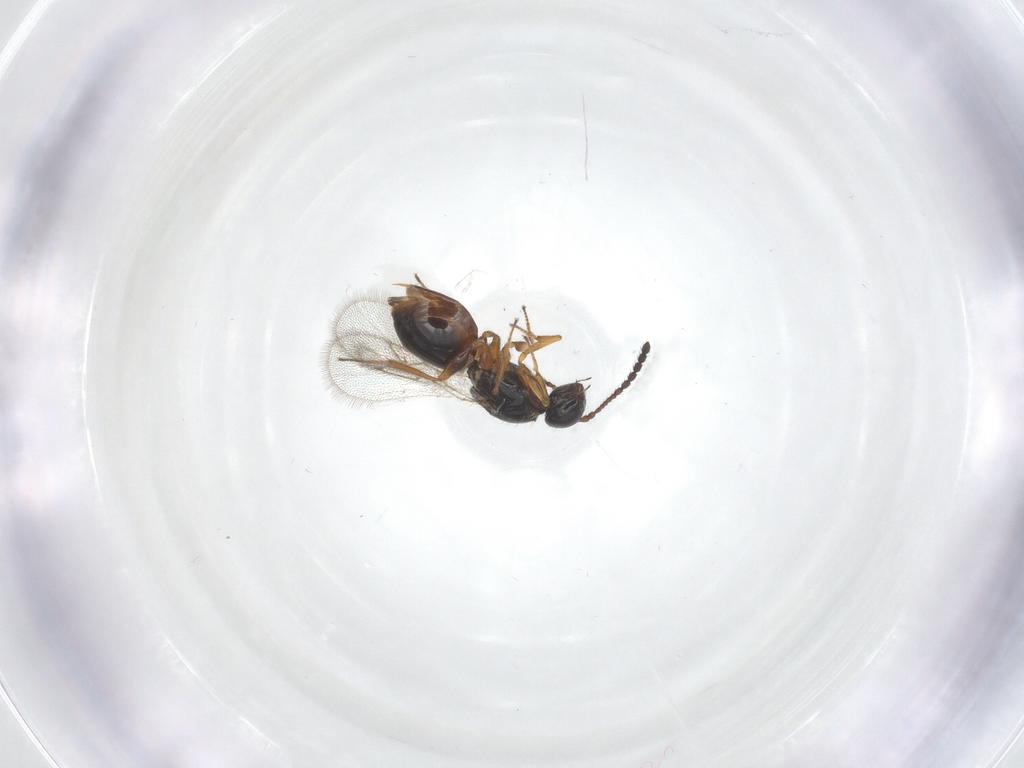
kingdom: Animalia
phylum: Arthropoda
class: Insecta
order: Hymenoptera
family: Figitidae
